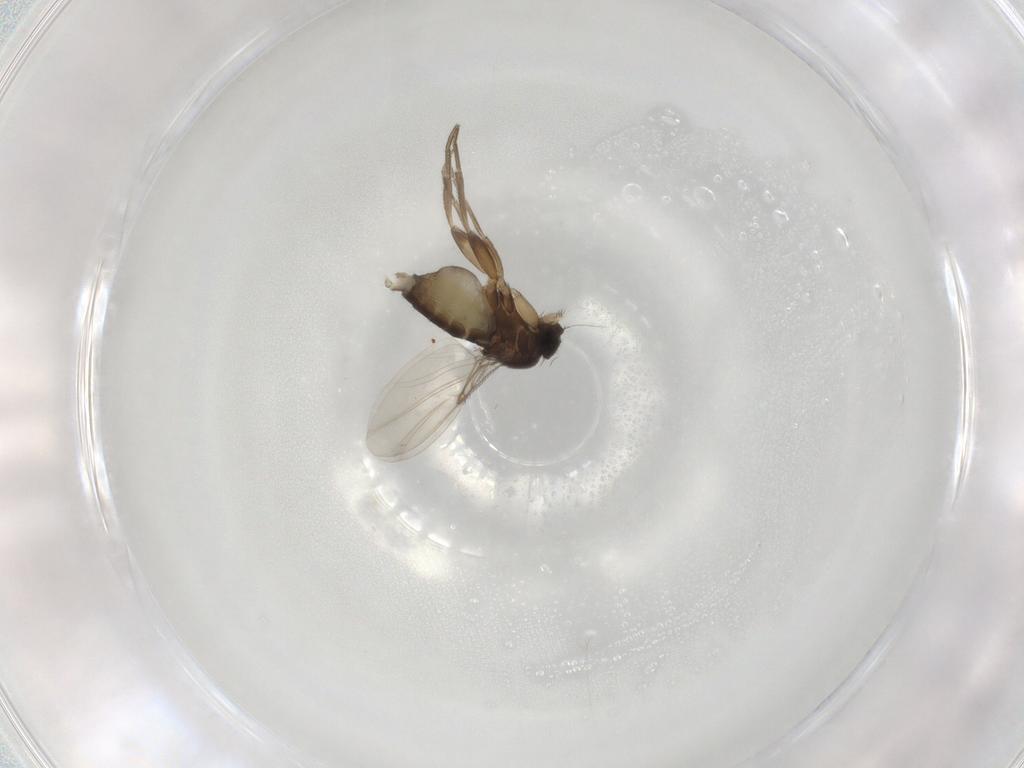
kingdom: Animalia
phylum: Arthropoda
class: Insecta
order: Diptera
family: Phoridae
